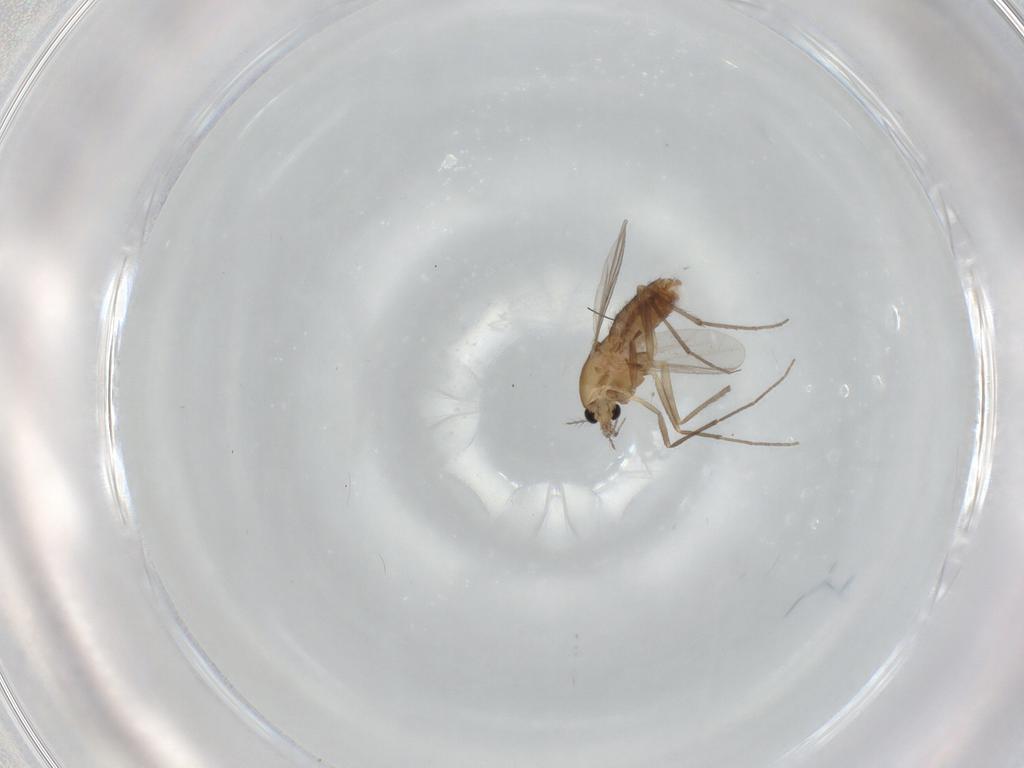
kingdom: Animalia
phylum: Arthropoda
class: Insecta
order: Diptera
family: Chironomidae
